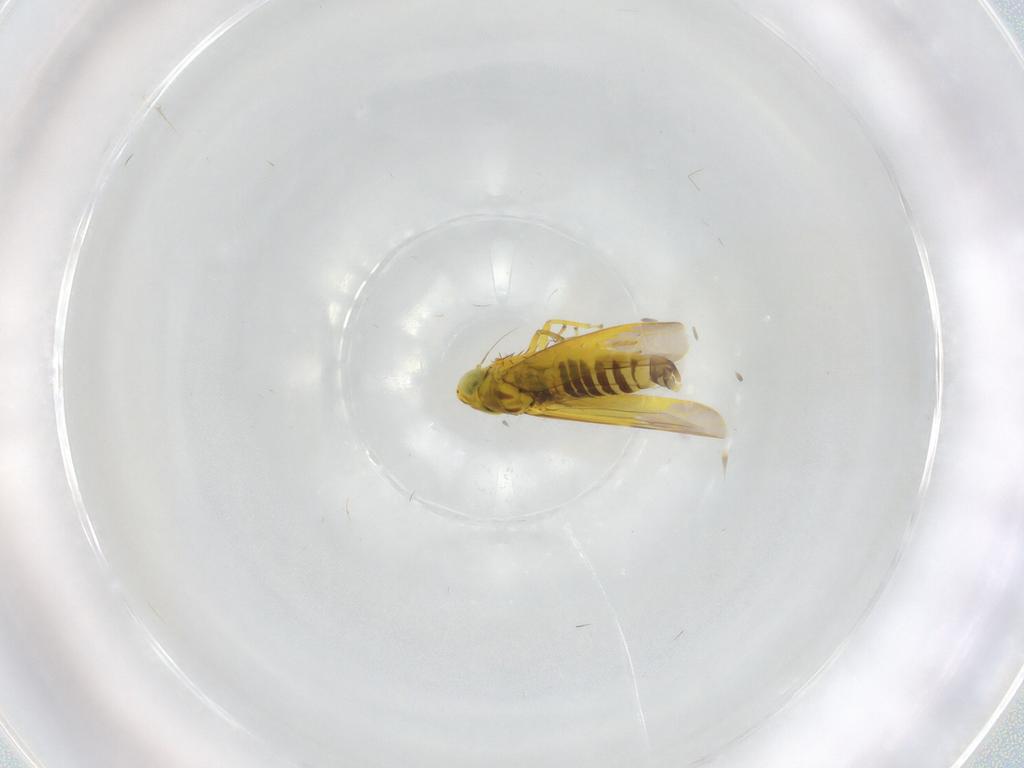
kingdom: Animalia
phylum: Arthropoda
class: Insecta
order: Hemiptera
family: Cicadellidae
